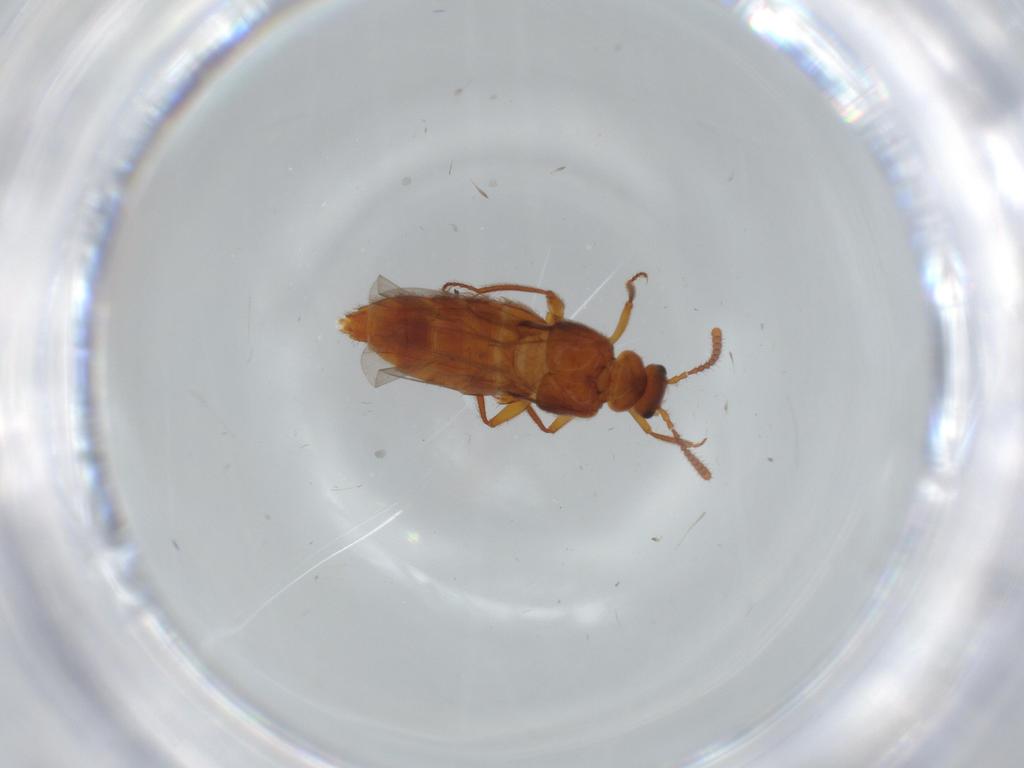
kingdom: Animalia
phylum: Arthropoda
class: Insecta
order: Coleoptera
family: Staphylinidae
